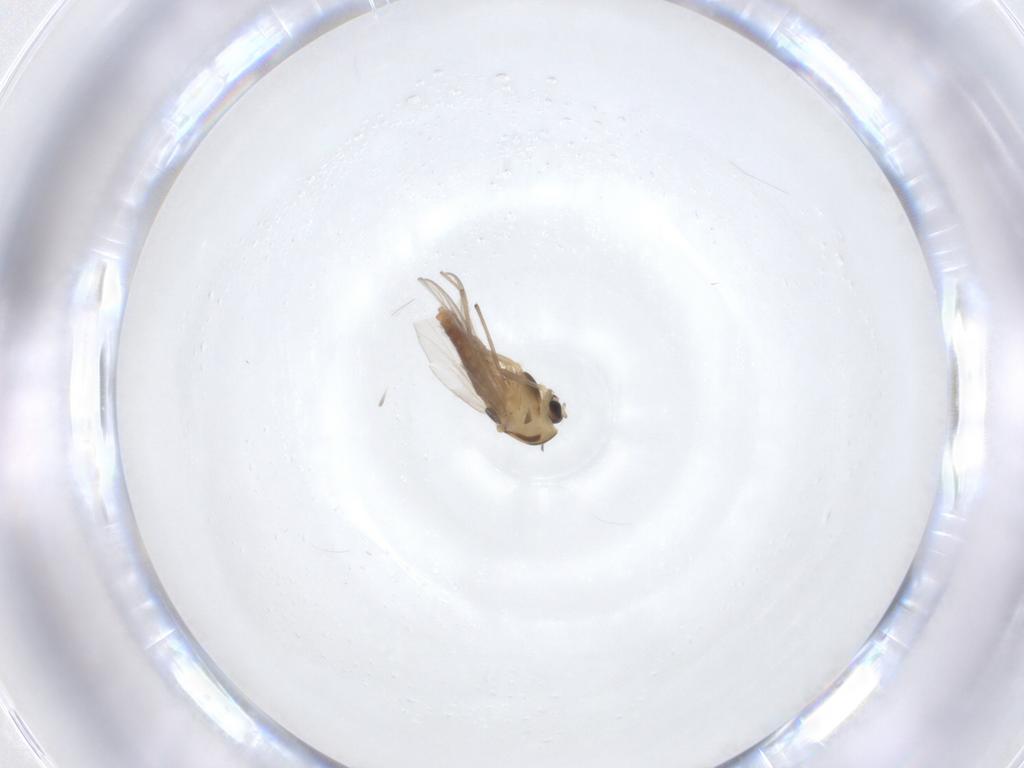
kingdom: Animalia
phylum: Arthropoda
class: Insecta
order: Diptera
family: Chironomidae
